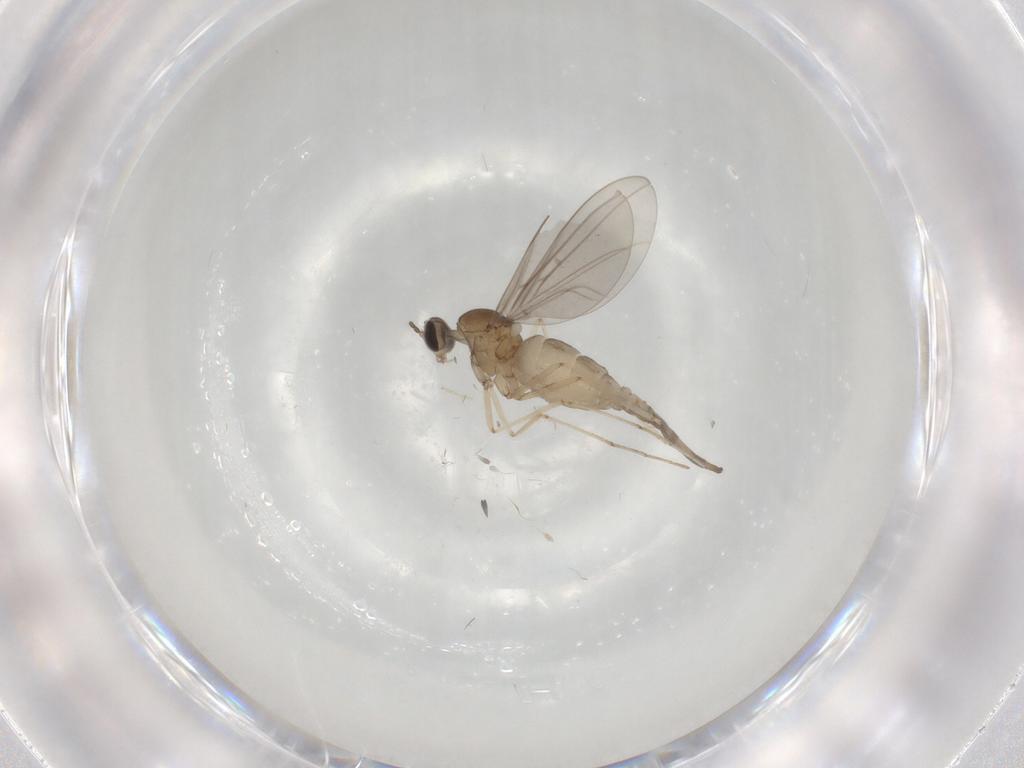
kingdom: Animalia
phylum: Arthropoda
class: Insecta
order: Diptera
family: Cecidomyiidae
